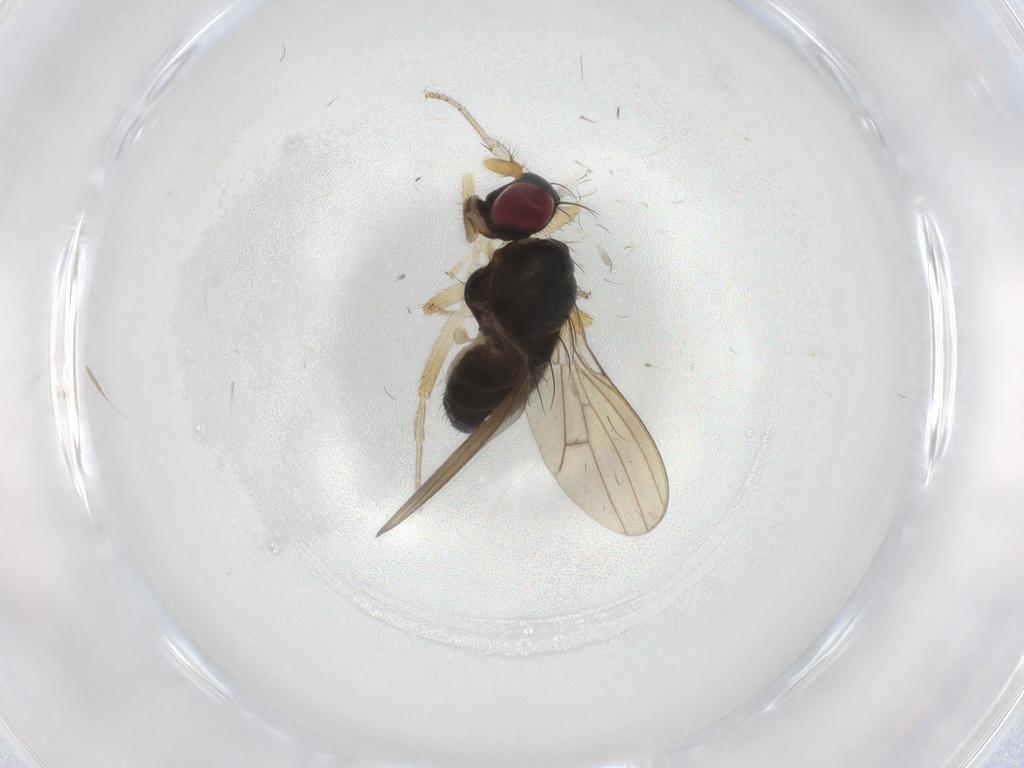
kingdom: Animalia
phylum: Arthropoda
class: Insecta
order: Diptera
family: Syrphidae
